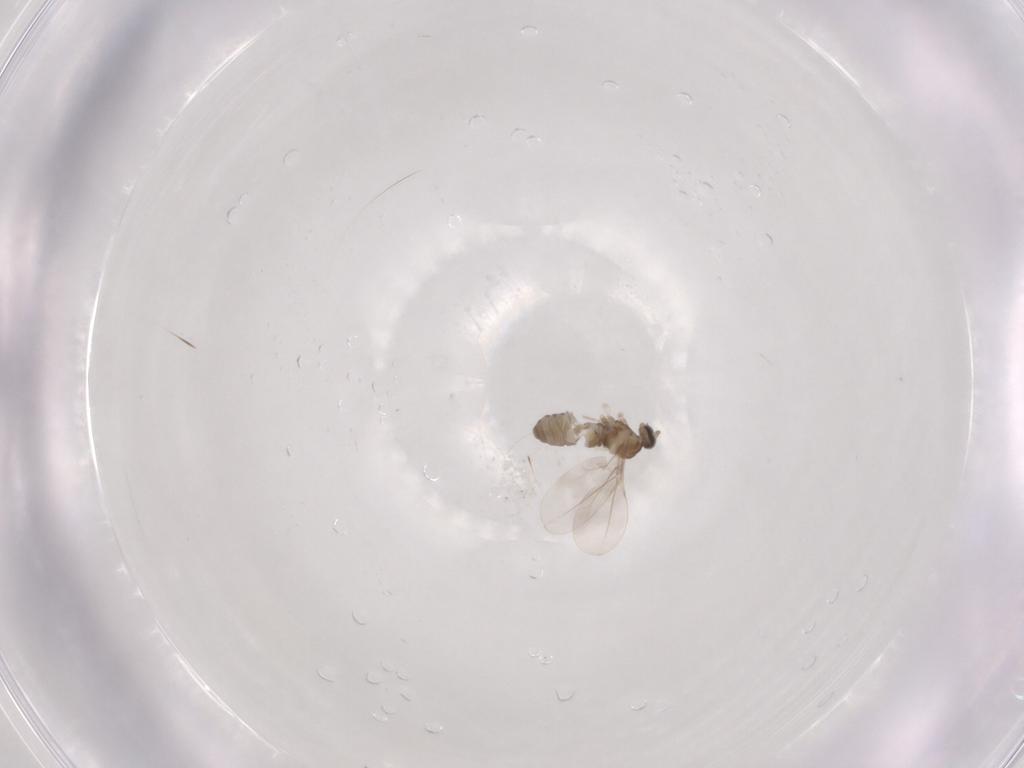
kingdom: Animalia
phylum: Arthropoda
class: Insecta
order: Diptera
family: Cecidomyiidae
